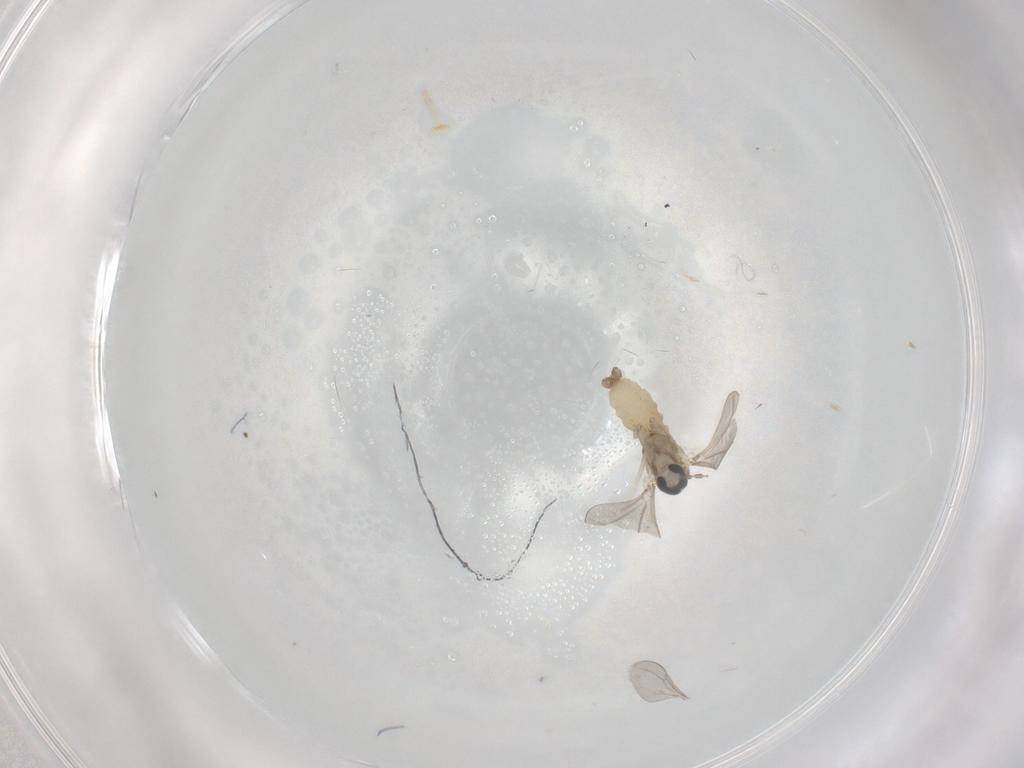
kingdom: Animalia
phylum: Arthropoda
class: Insecta
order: Diptera
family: Cecidomyiidae
